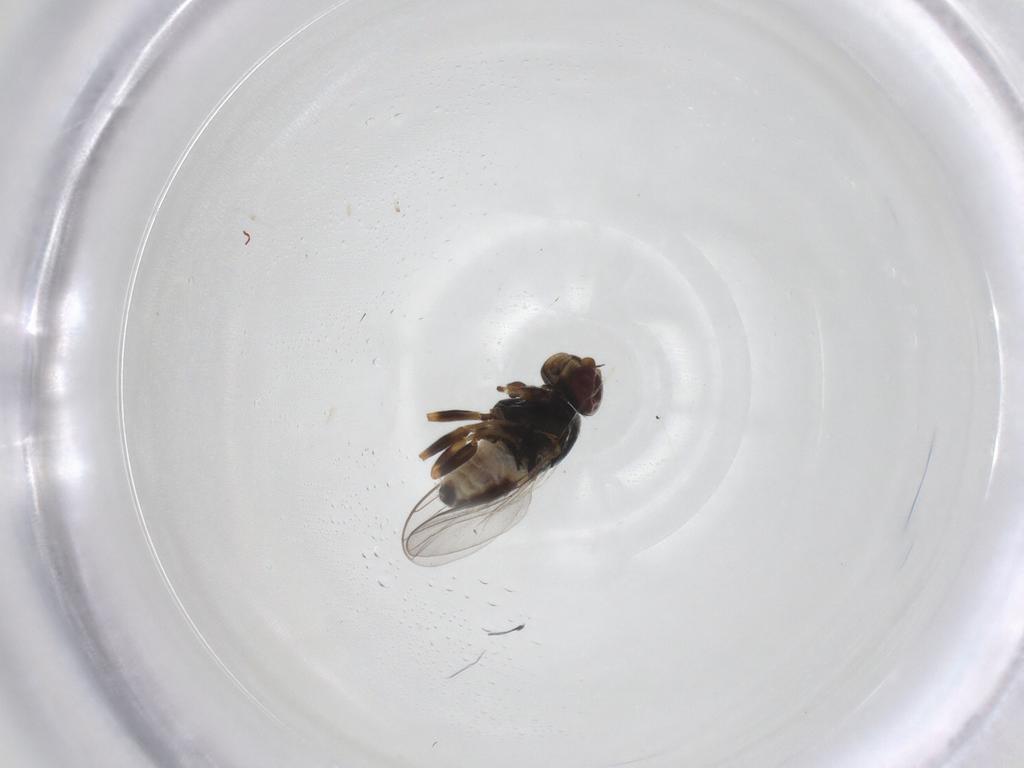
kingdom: Animalia
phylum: Arthropoda
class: Insecta
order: Diptera
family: Chloropidae
